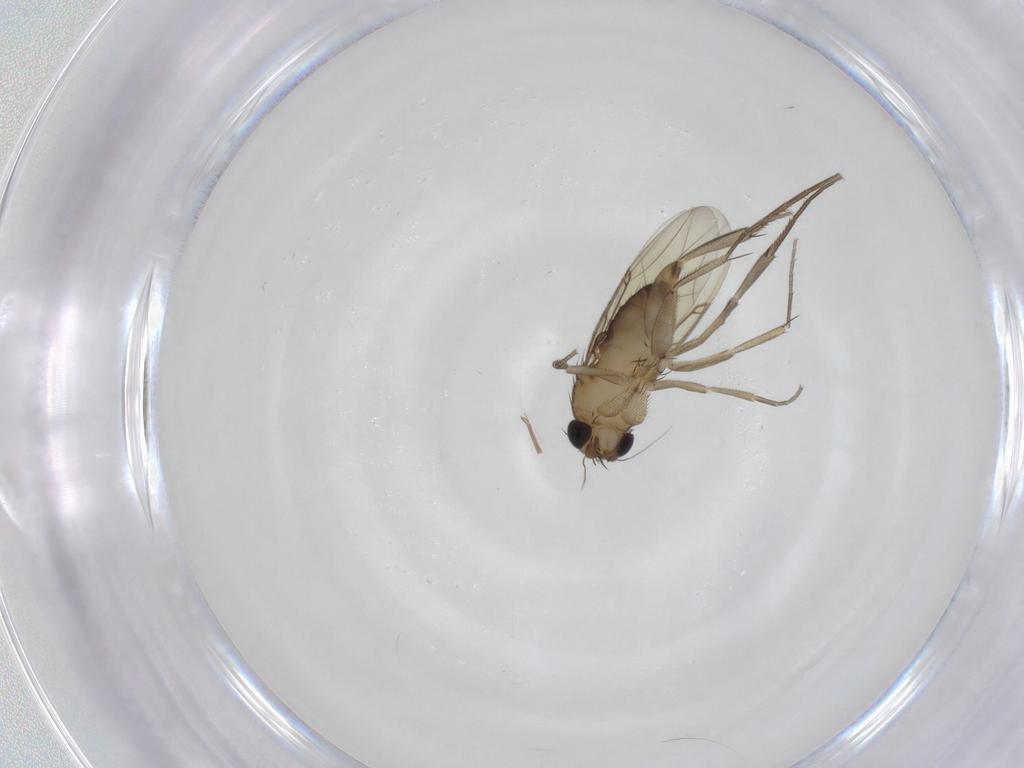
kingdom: Animalia
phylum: Arthropoda
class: Insecta
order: Diptera
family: Phoridae
